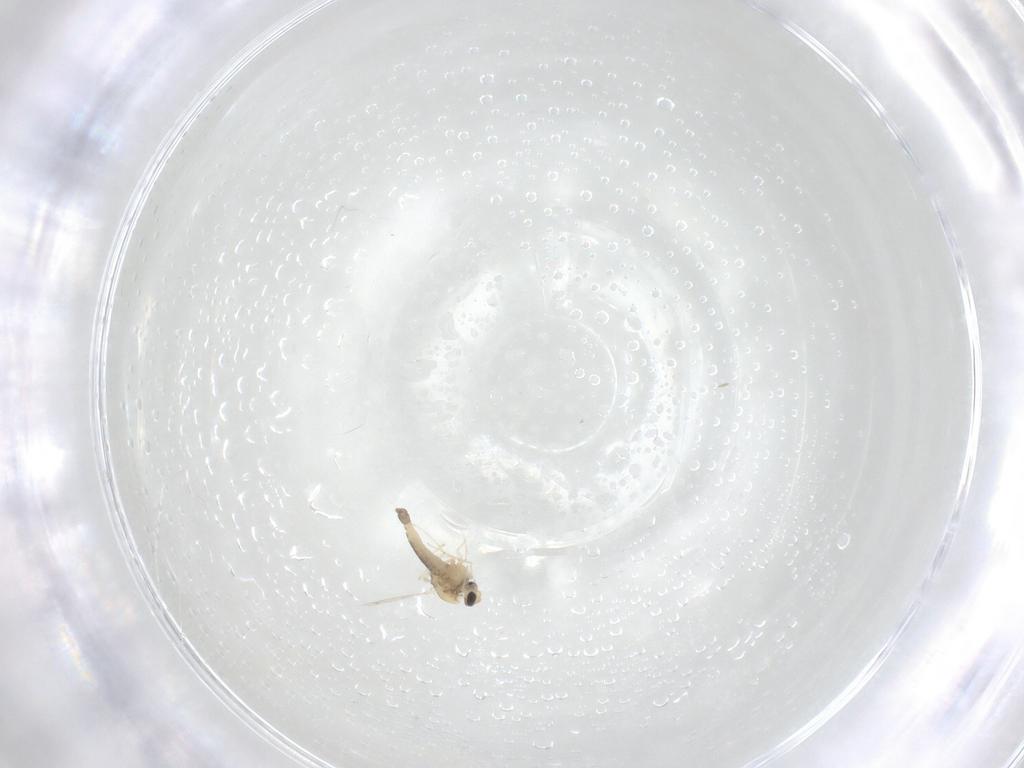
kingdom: Animalia
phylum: Arthropoda
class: Insecta
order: Diptera
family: Chironomidae
